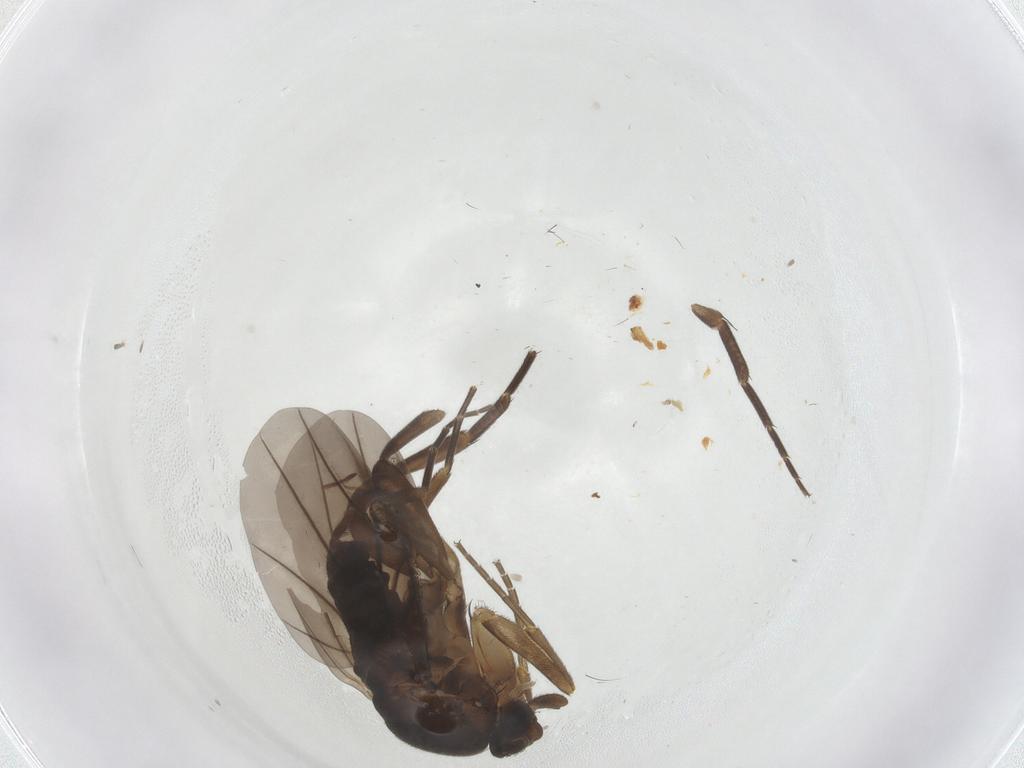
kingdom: Animalia
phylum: Arthropoda
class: Insecta
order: Diptera
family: Phoridae
